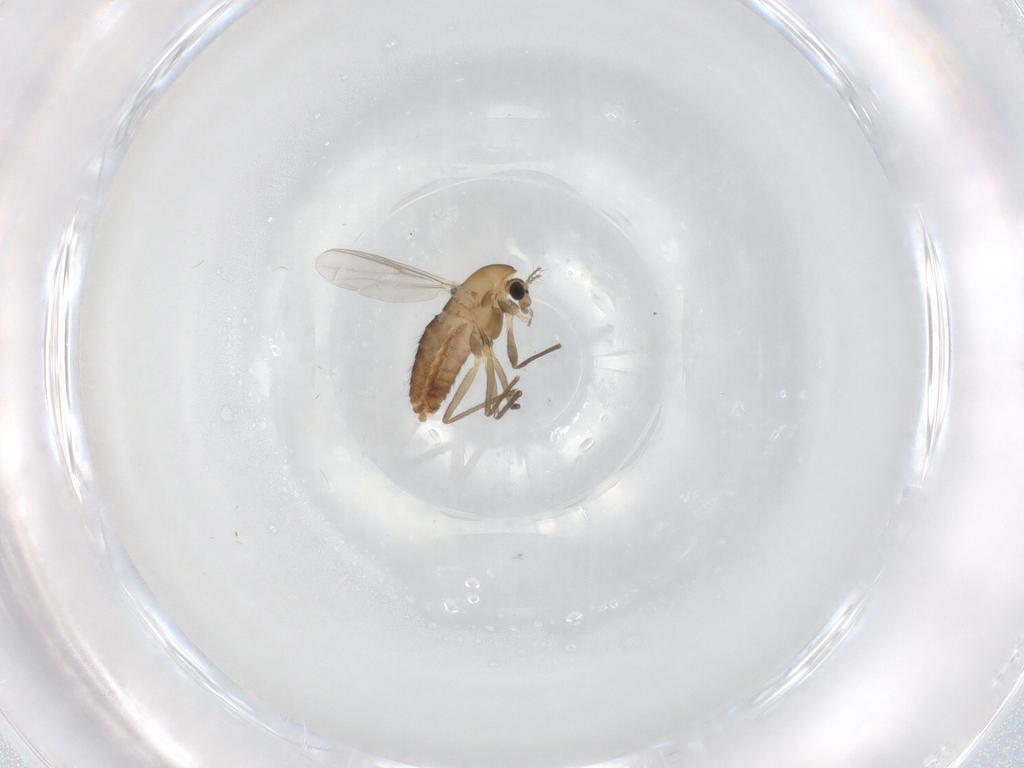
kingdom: Animalia
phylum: Arthropoda
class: Insecta
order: Diptera
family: Chironomidae
